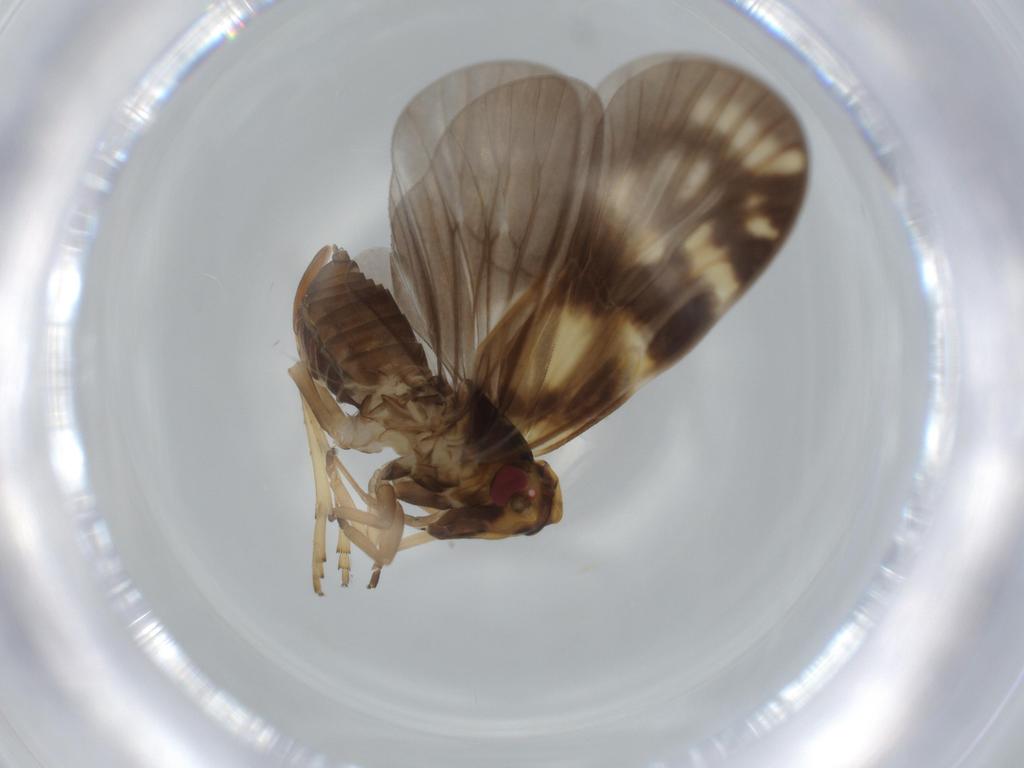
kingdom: Animalia
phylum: Arthropoda
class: Insecta
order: Hemiptera
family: Cixiidae
